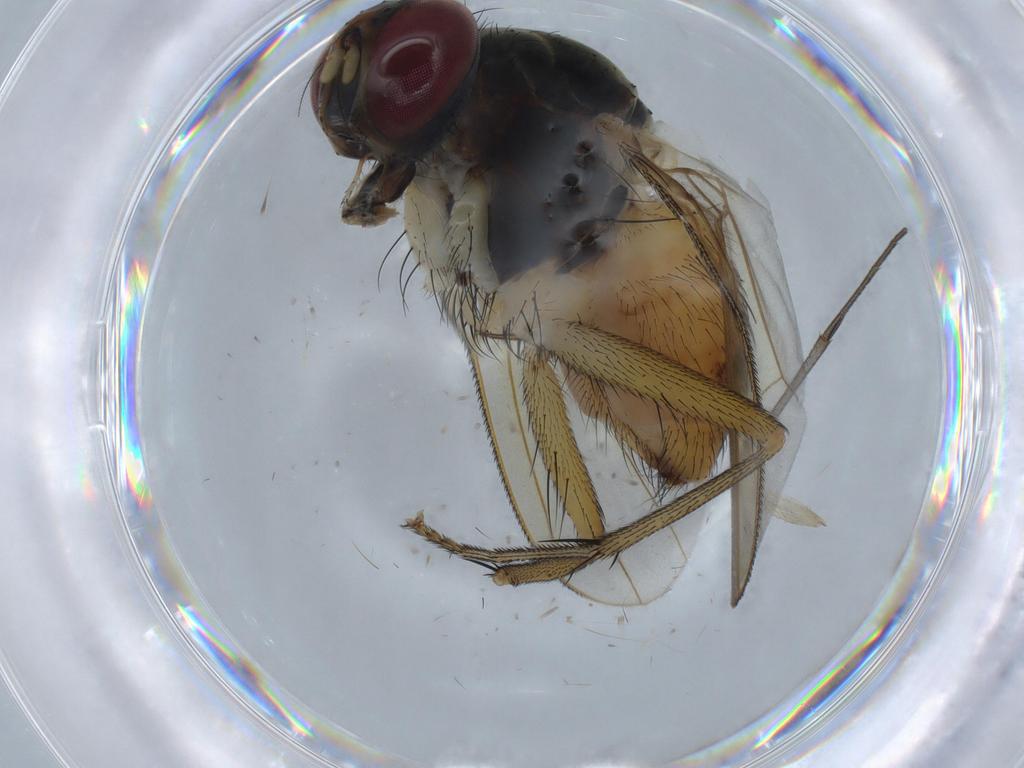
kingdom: Animalia
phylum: Arthropoda
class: Insecta
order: Diptera
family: Muscidae
